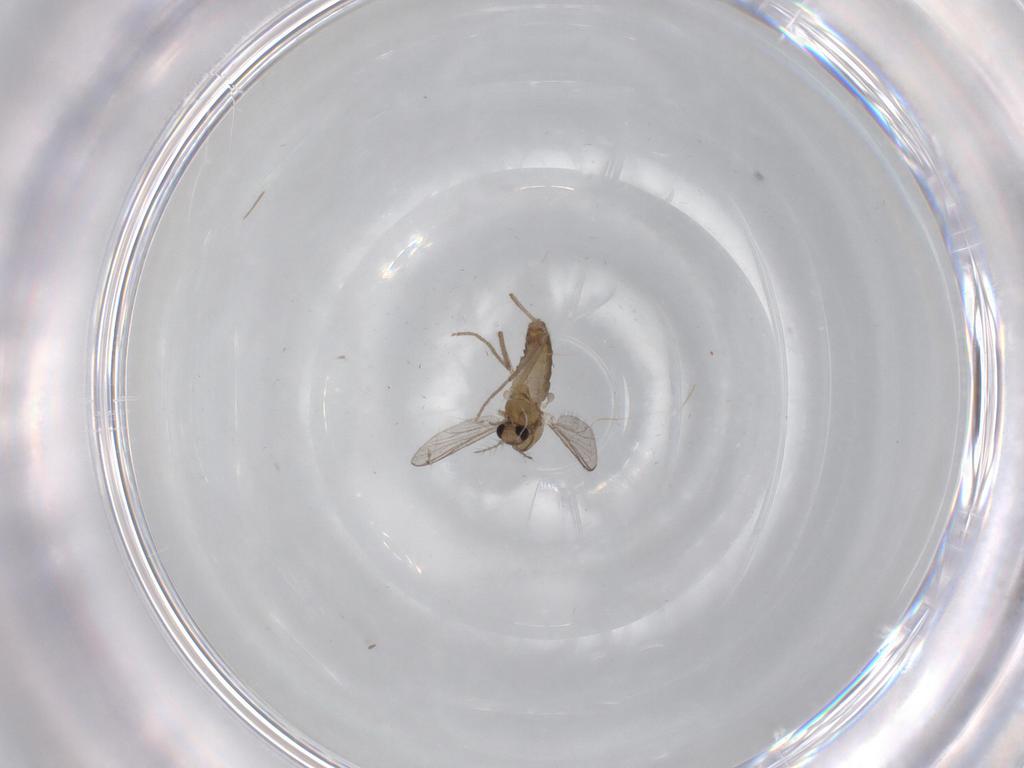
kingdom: Animalia
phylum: Arthropoda
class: Insecta
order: Diptera
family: Chironomidae
